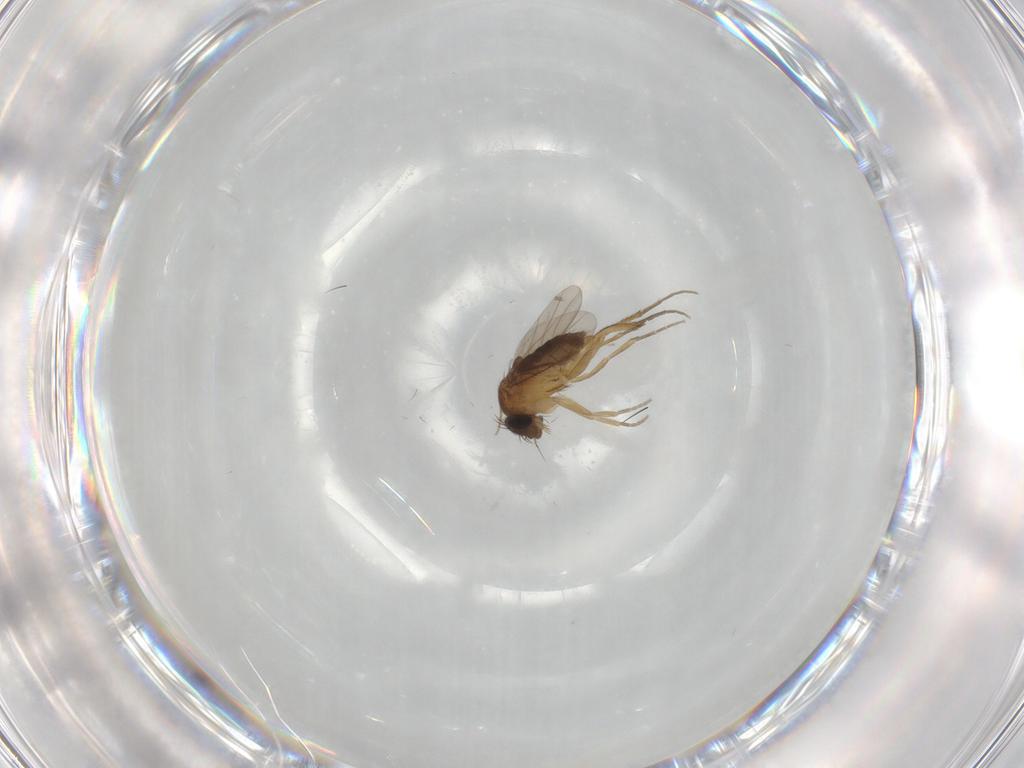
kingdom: Animalia
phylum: Arthropoda
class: Insecta
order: Diptera
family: Phoridae
